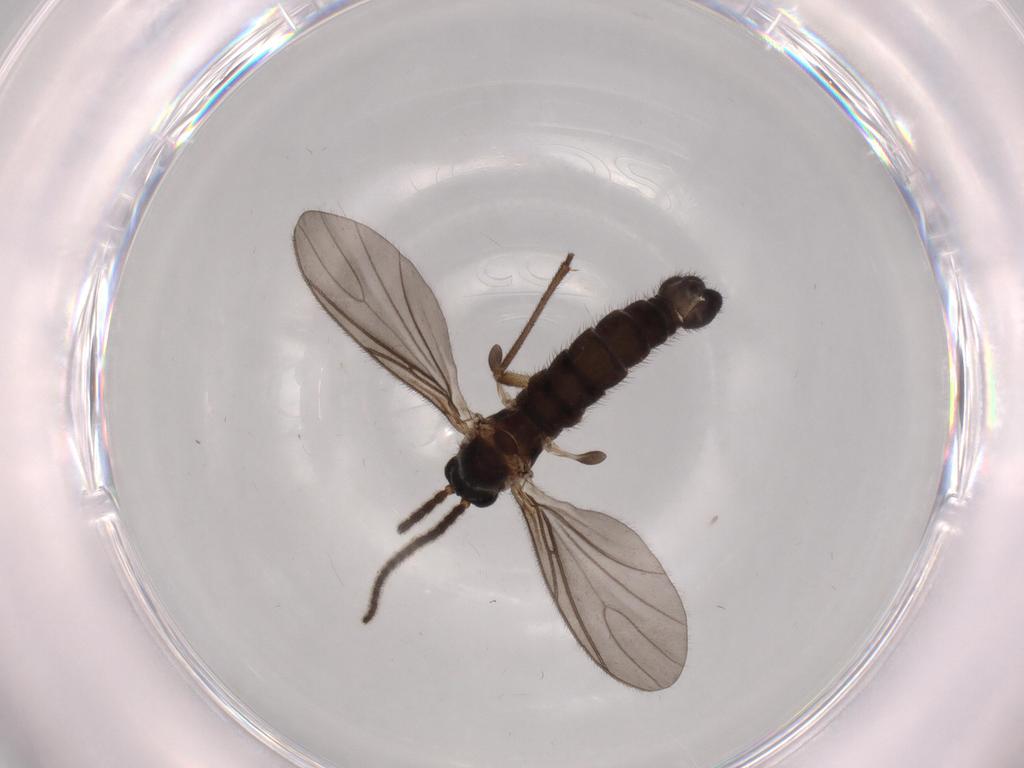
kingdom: Animalia
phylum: Arthropoda
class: Insecta
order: Diptera
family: Sciaridae
